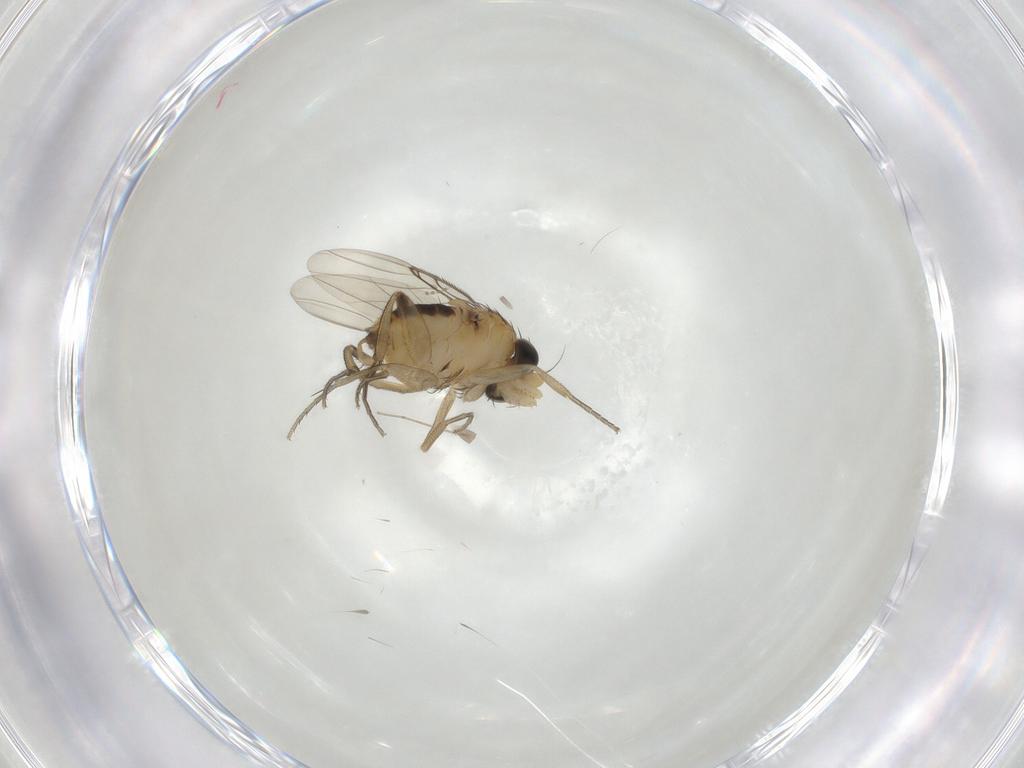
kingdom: Animalia
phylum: Arthropoda
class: Insecta
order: Diptera
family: Phoridae
